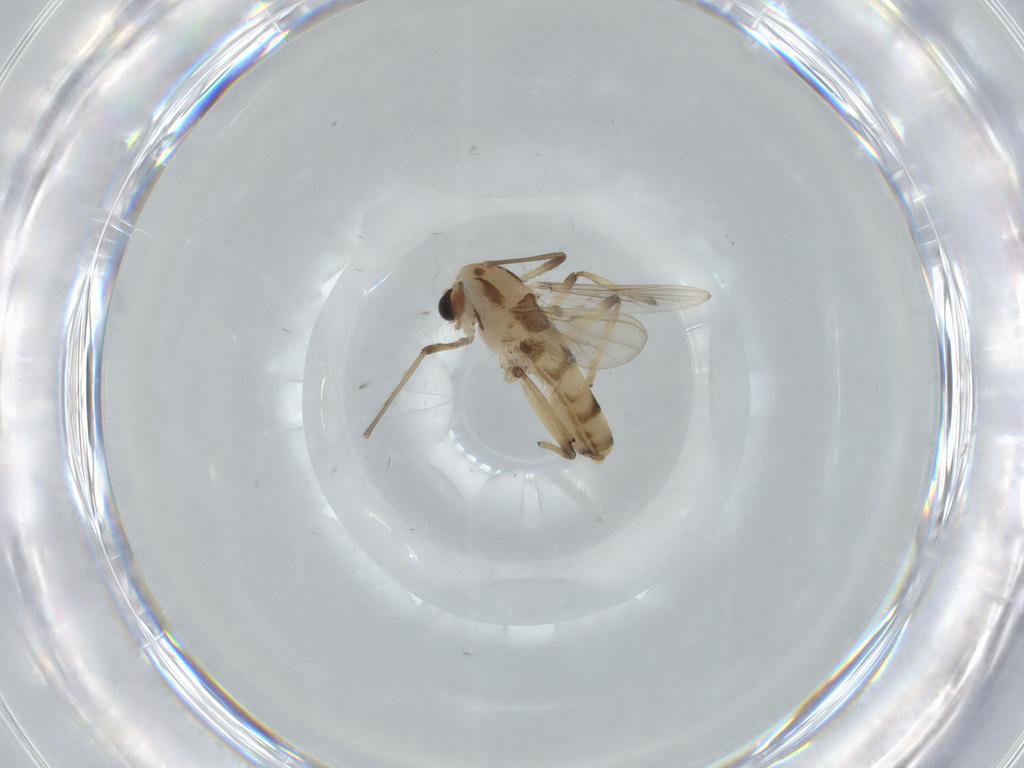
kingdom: Animalia
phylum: Arthropoda
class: Insecta
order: Diptera
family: Chironomidae
